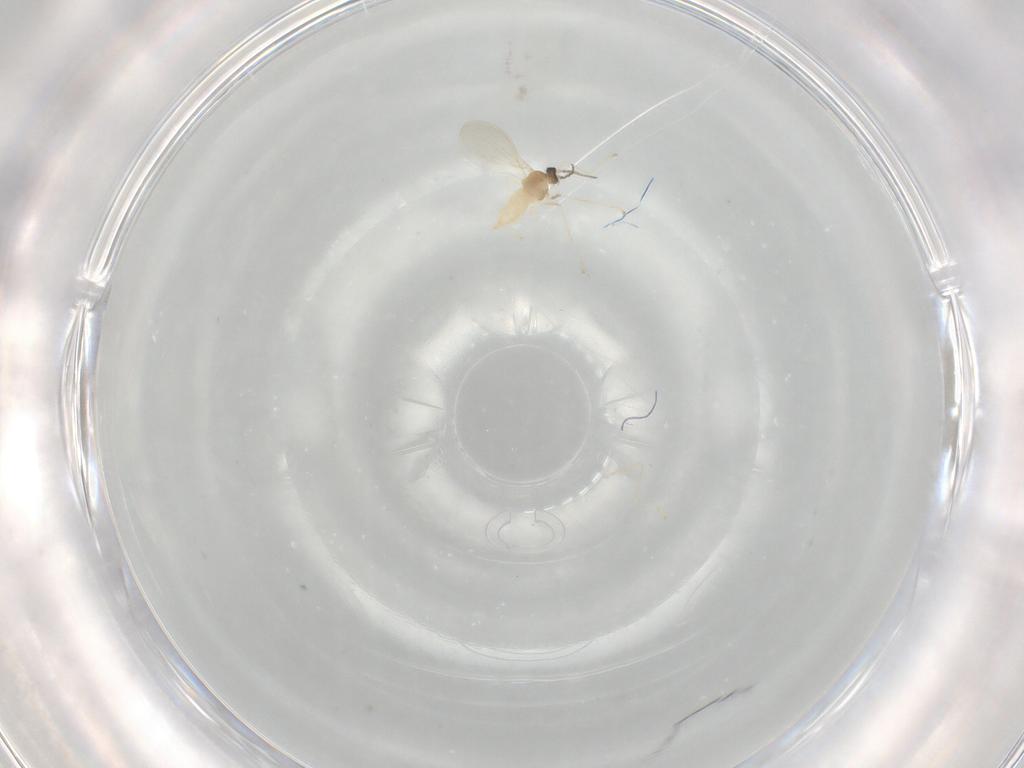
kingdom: Animalia
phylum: Arthropoda
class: Insecta
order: Diptera
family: Cecidomyiidae
